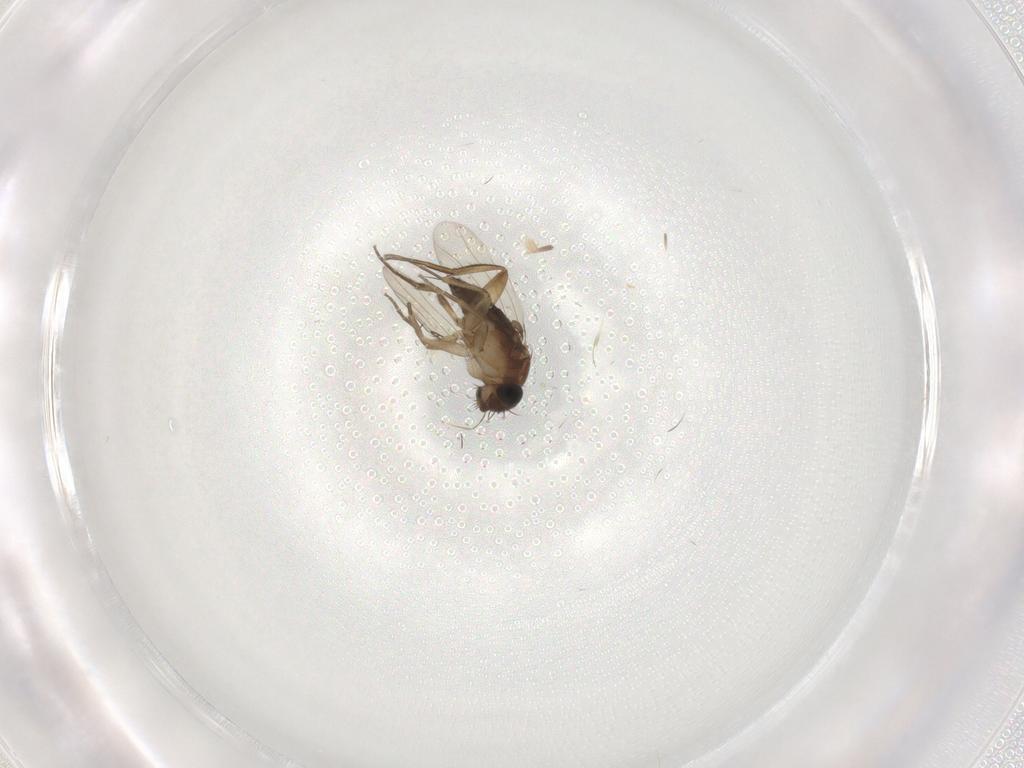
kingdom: Animalia
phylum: Arthropoda
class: Insecta
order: Diptera
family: Phoridae
